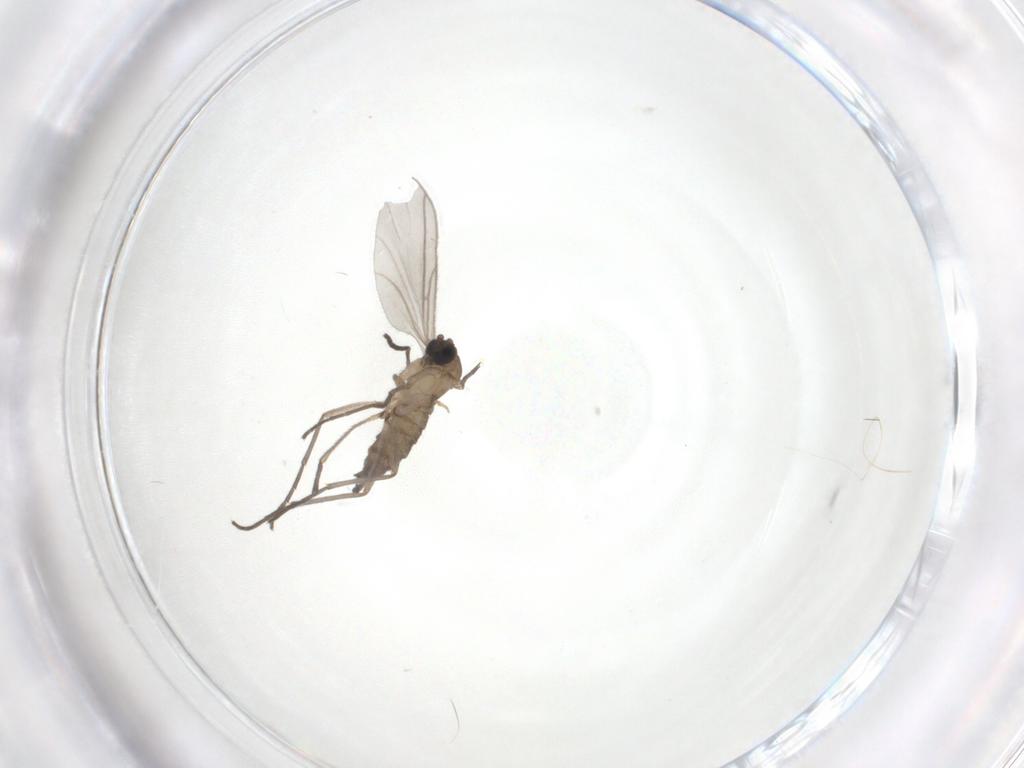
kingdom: Animalia
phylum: Arthropoda
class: Insecta
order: Diptera
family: Sciaridae
